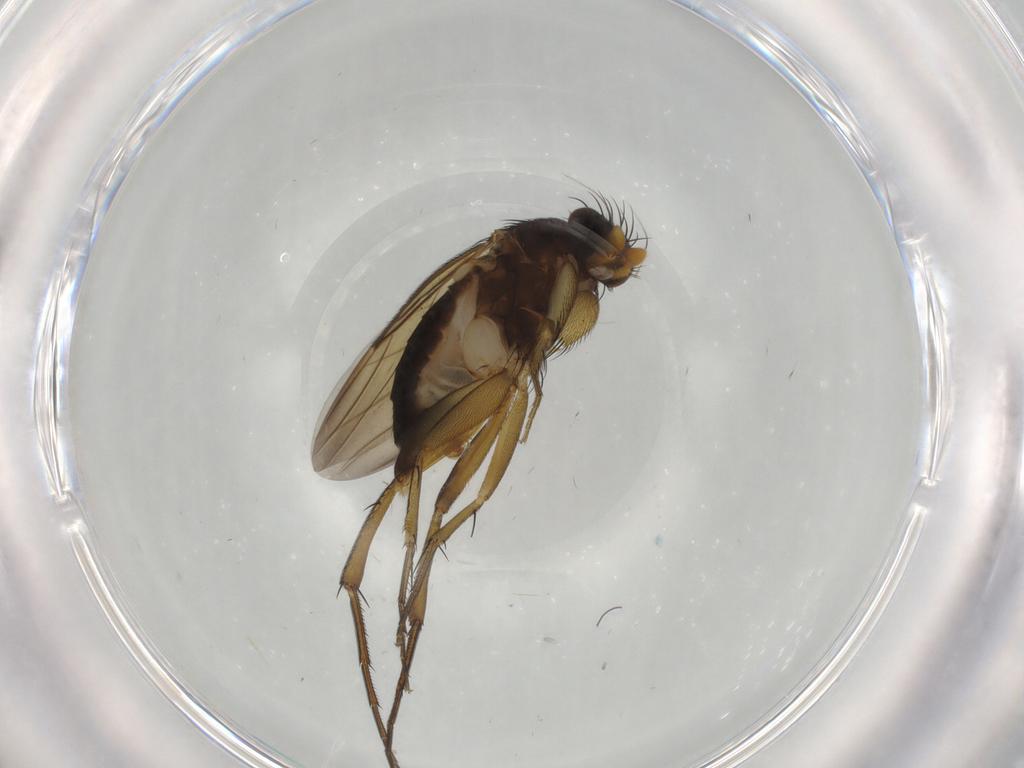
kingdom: Animalia
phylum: Arthropoda
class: Insecta
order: Diptera
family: Phoridae
